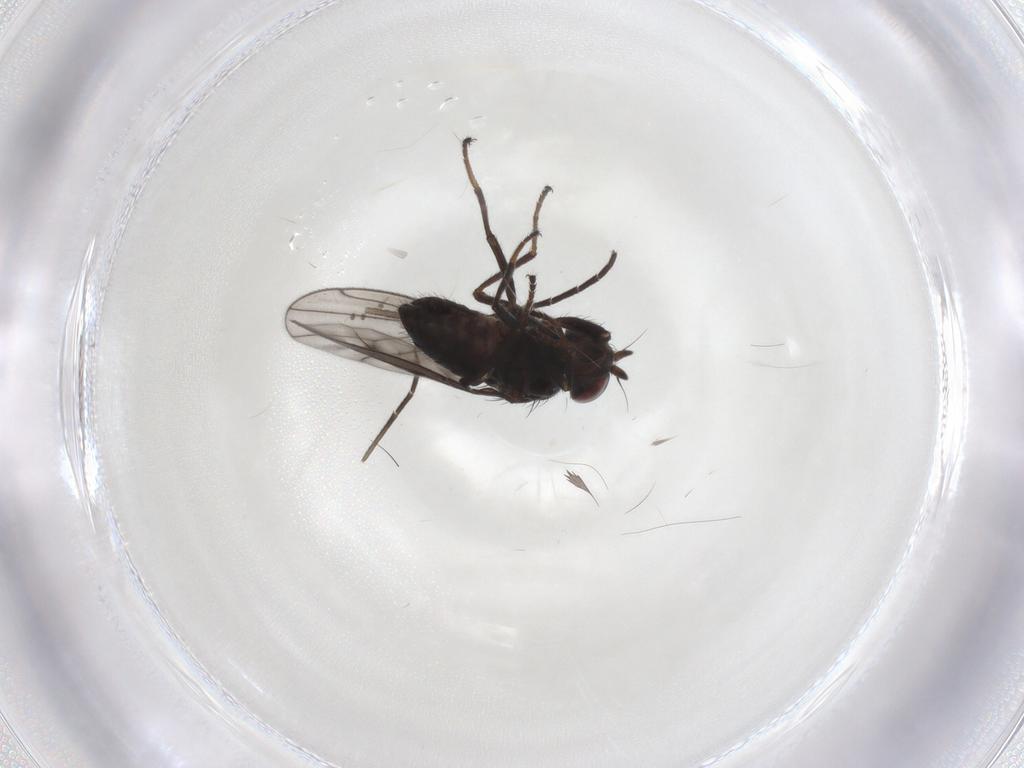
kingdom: Animalia
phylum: Arthropoda
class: Insecta
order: Diptera
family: Ephydridae
